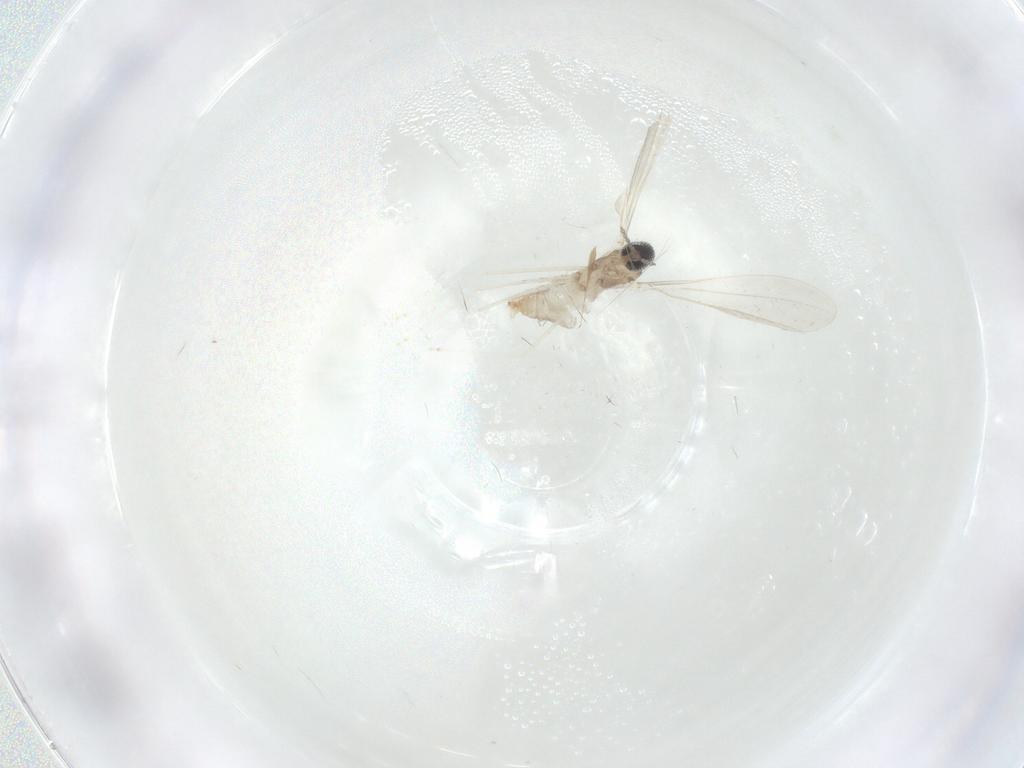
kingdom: Animalia
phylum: Arthropoda
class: Insecta
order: Diptera
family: Cecidomyiidae
